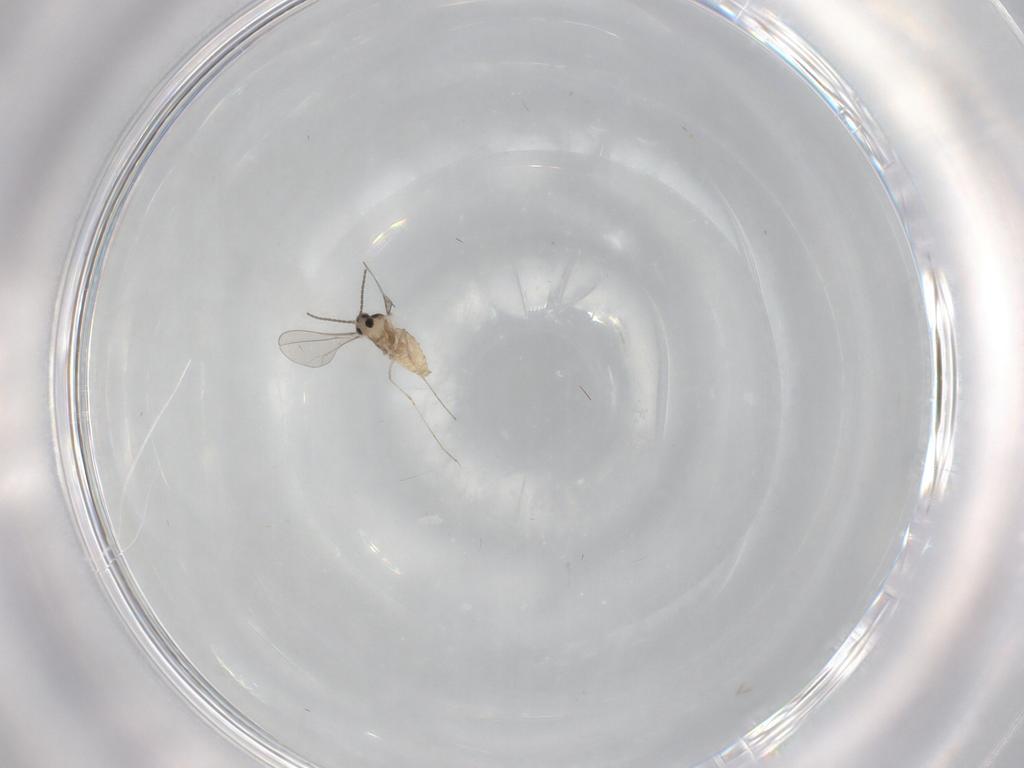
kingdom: Animalia
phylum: Arthropoda
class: Insecta
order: Diptera
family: Cecidomyiidae
